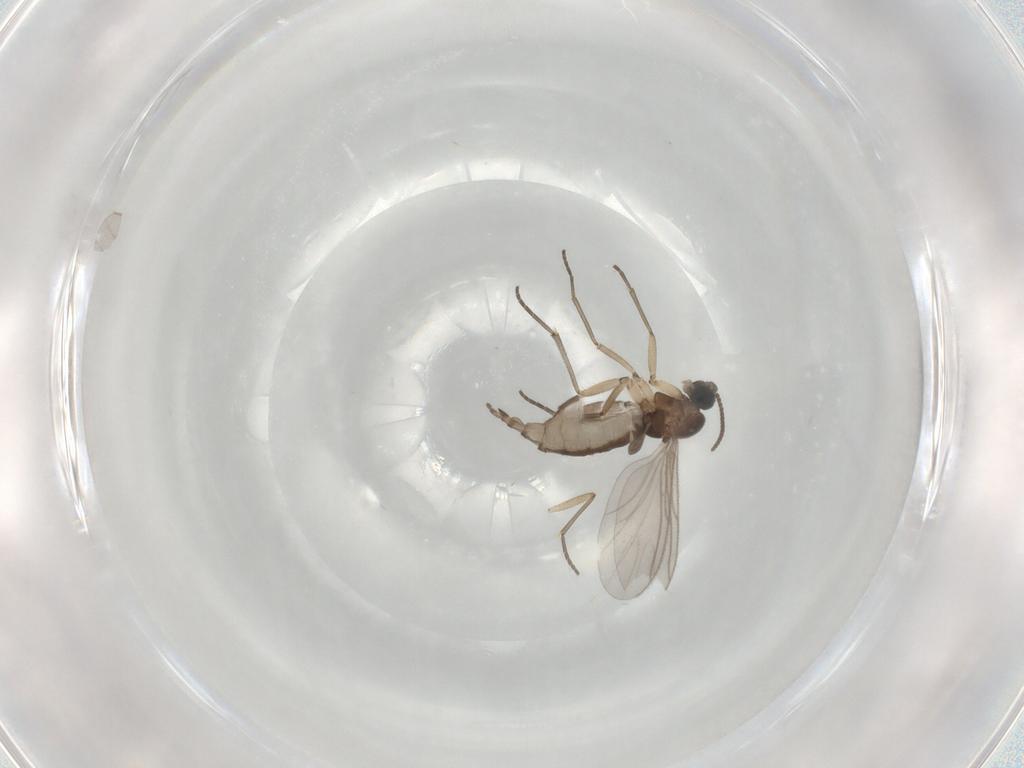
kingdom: Animalia
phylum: Arthropoda
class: Insecta
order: Diptera
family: Sciaridae
